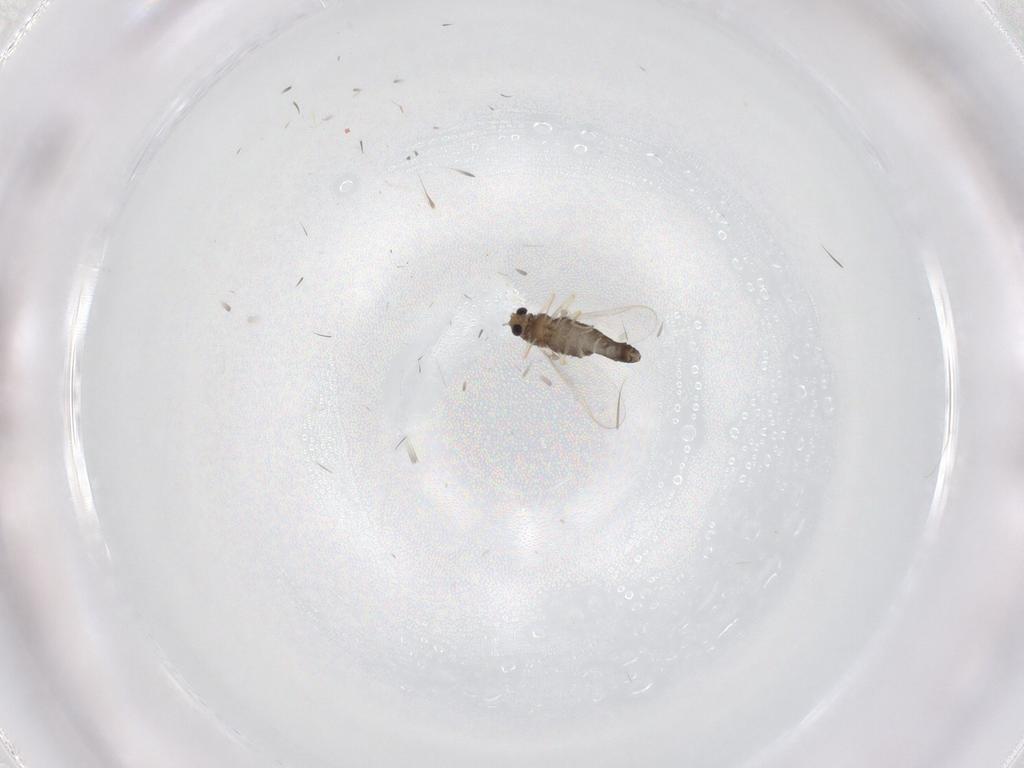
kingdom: Animalia
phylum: Arthropoda
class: Insecta
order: Diptera
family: Chironomidae
